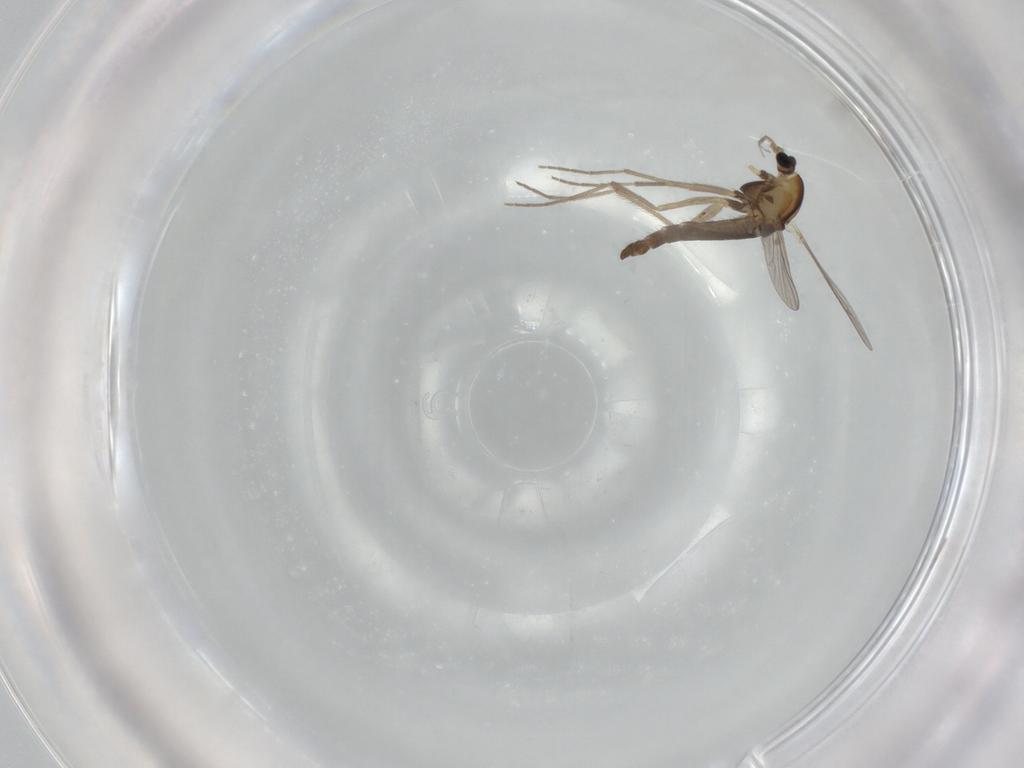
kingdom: Animalia
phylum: Arthropoda
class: Insecta
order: Diptera
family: Chironomidae
